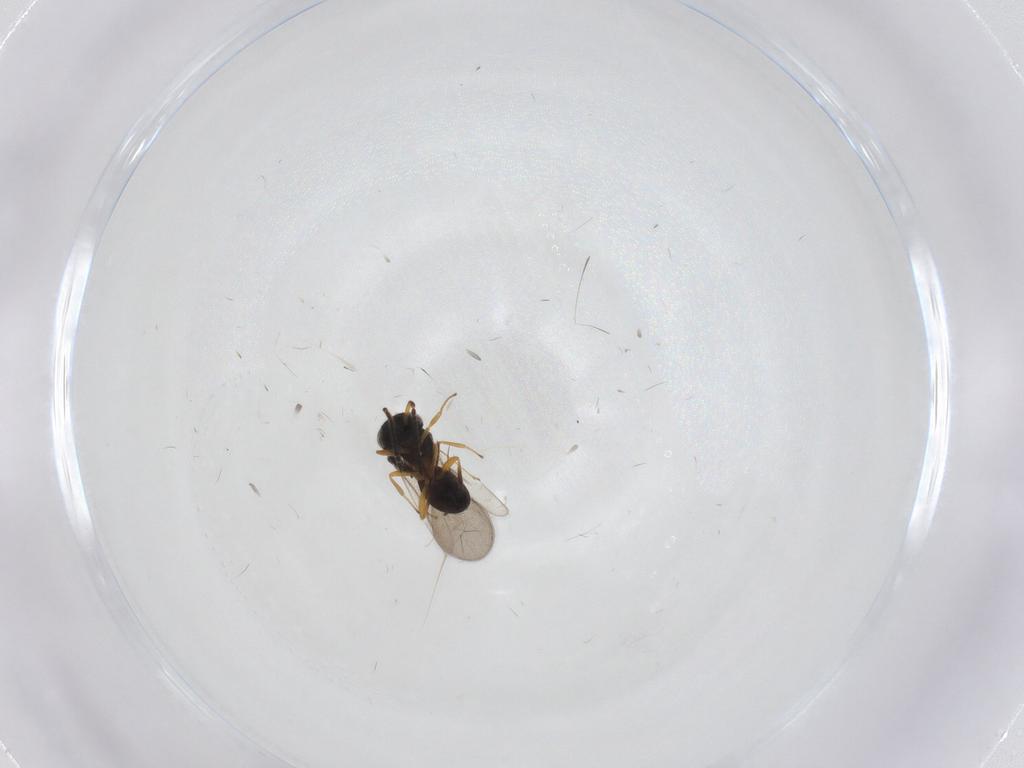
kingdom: Animalia
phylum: Arthropoda
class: Insecta
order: Hymenoptera
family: Scelionidae
